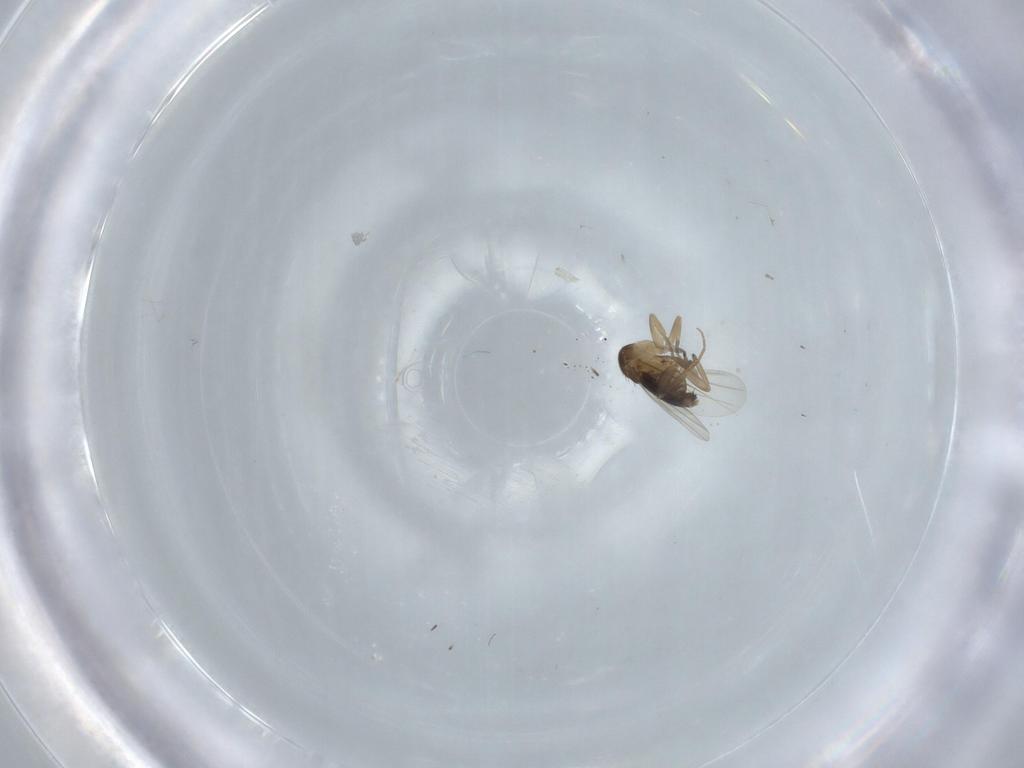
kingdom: Animalia
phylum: Arthropoda
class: Insecta
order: Diptera
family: Phoridae
